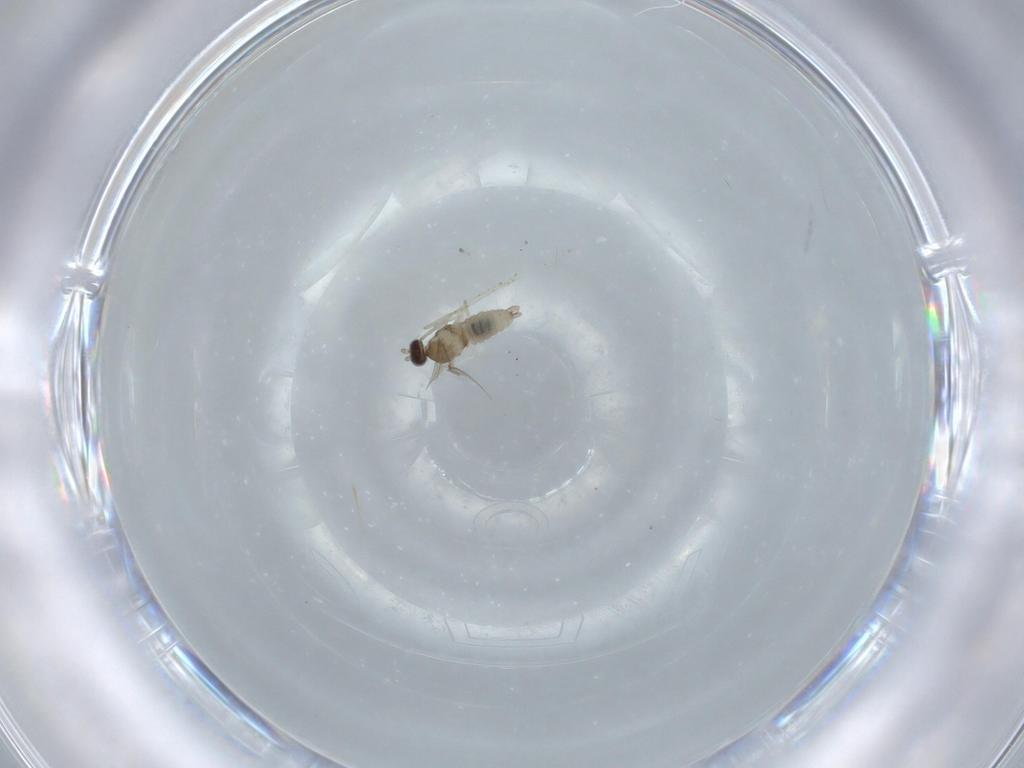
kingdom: Animalia
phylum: Arthropoda
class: Insecta
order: Diptera
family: Cecidomyiidae
